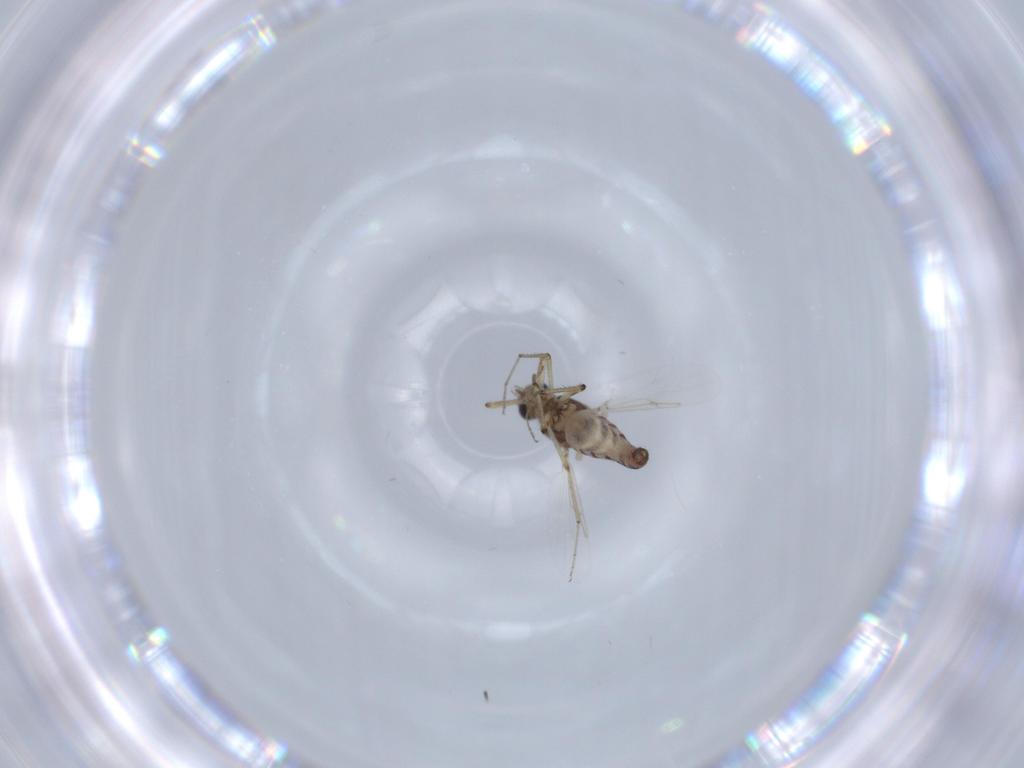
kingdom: Animalia
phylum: Arthropoda
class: Insecta
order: Diptera
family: Ceratopogonidae
